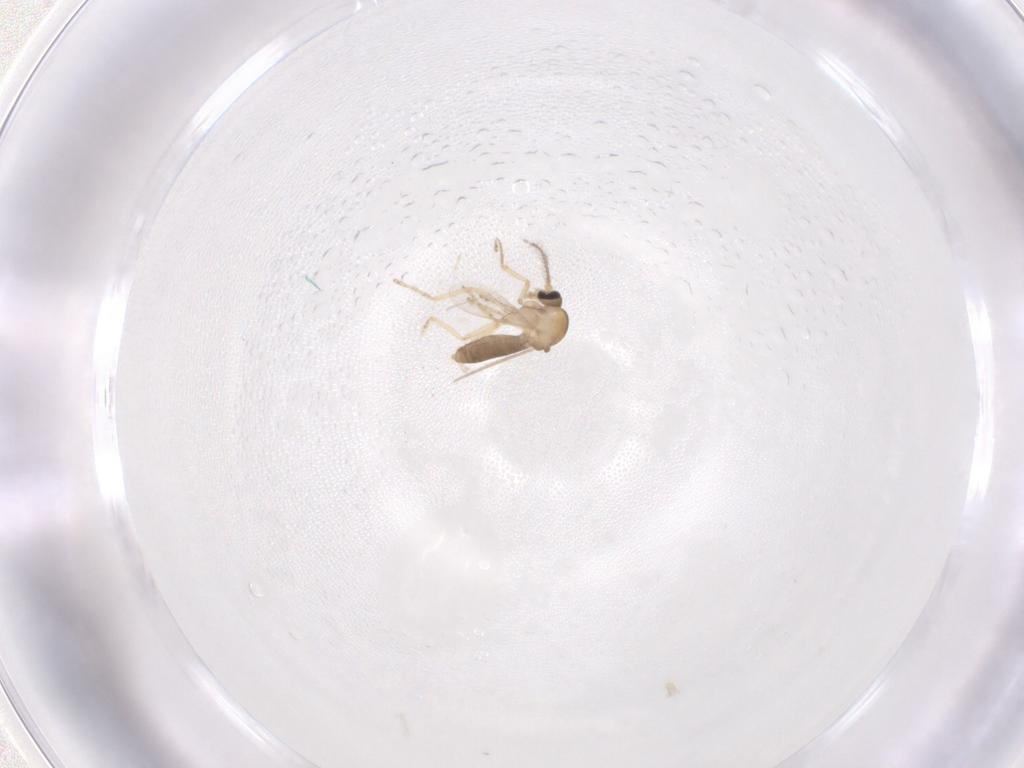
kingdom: Animalia
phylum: Arthropoda
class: Insecta
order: Diptera
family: Ceratopogonidae
